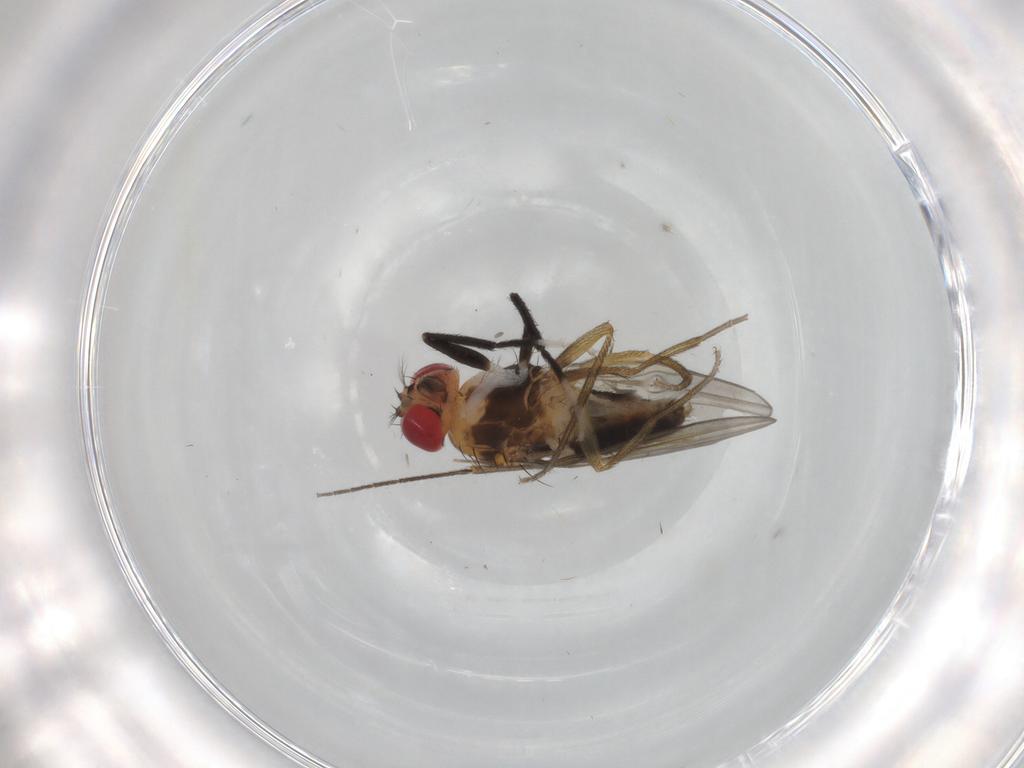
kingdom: Animalia
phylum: Arthropoda
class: Insecta
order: Diptera
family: Drosophilidae
